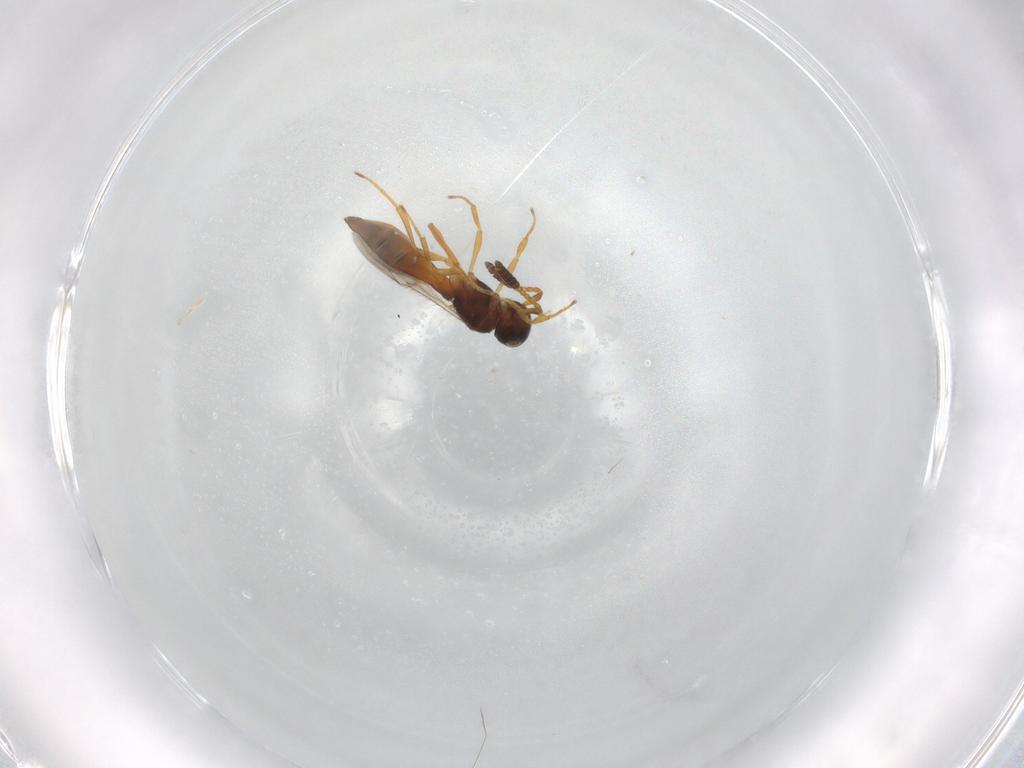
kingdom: Animalia
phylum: Arthropoda
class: Insecta
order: Hymenoptera
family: Scelionidae
